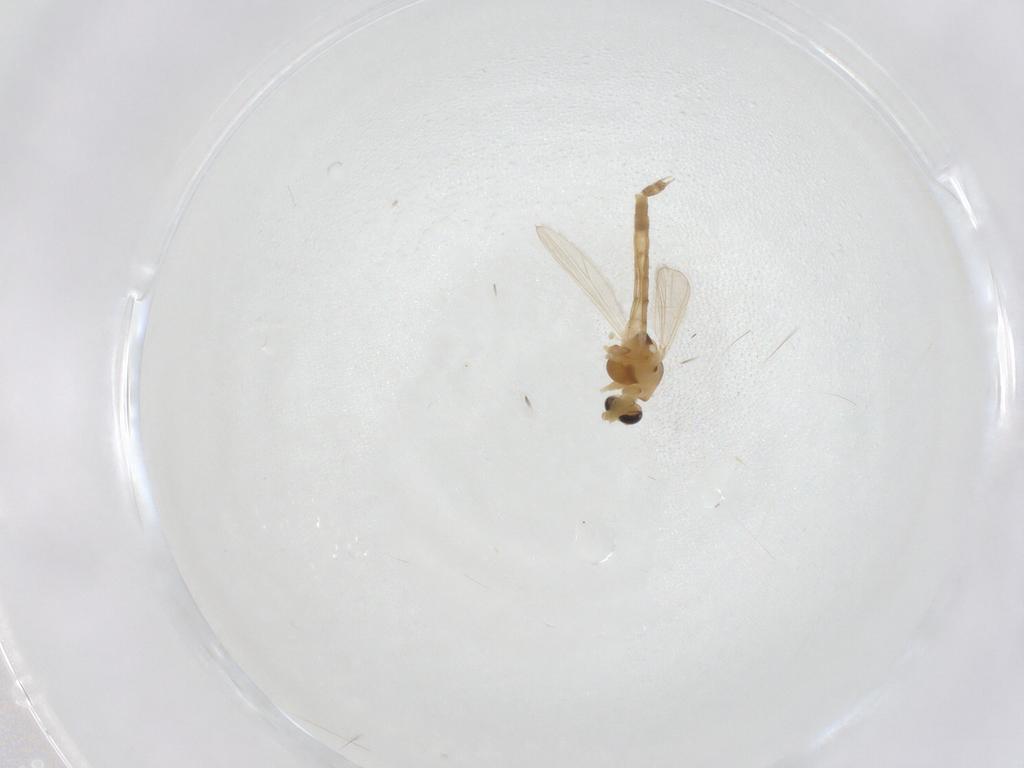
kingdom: Animalia
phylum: Arthropoda
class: Insecta
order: Diptera
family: Chironomidae
